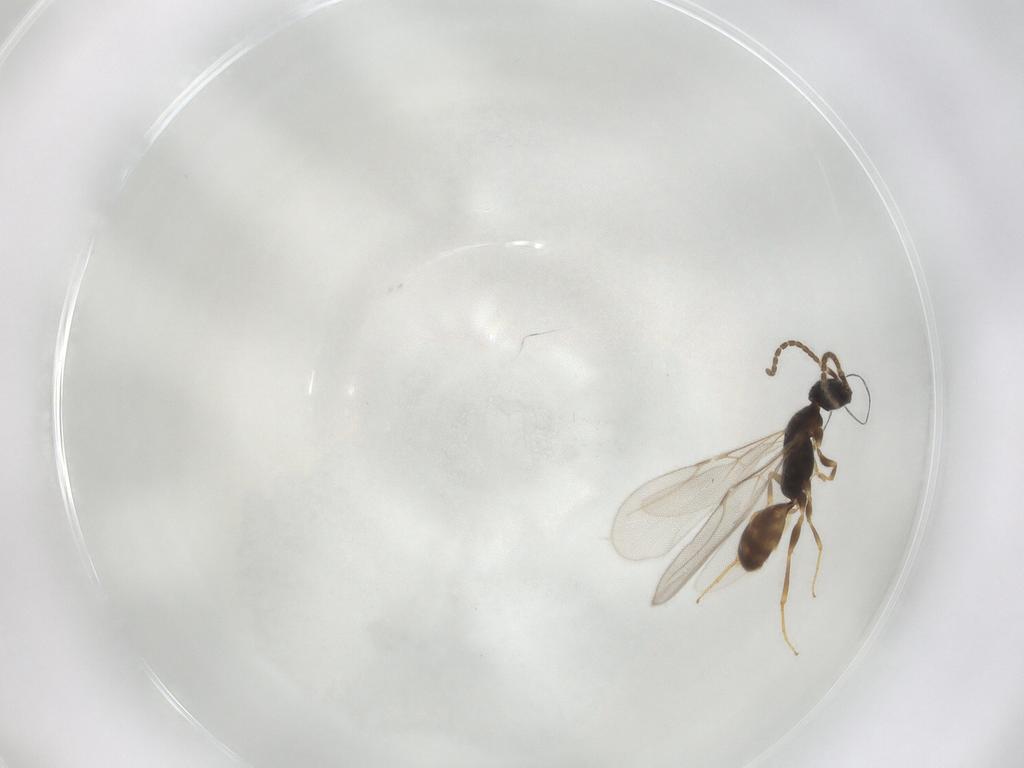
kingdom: Animalia
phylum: Arthropoda
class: Insecta
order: Hymenoptera
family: Bethylidae
